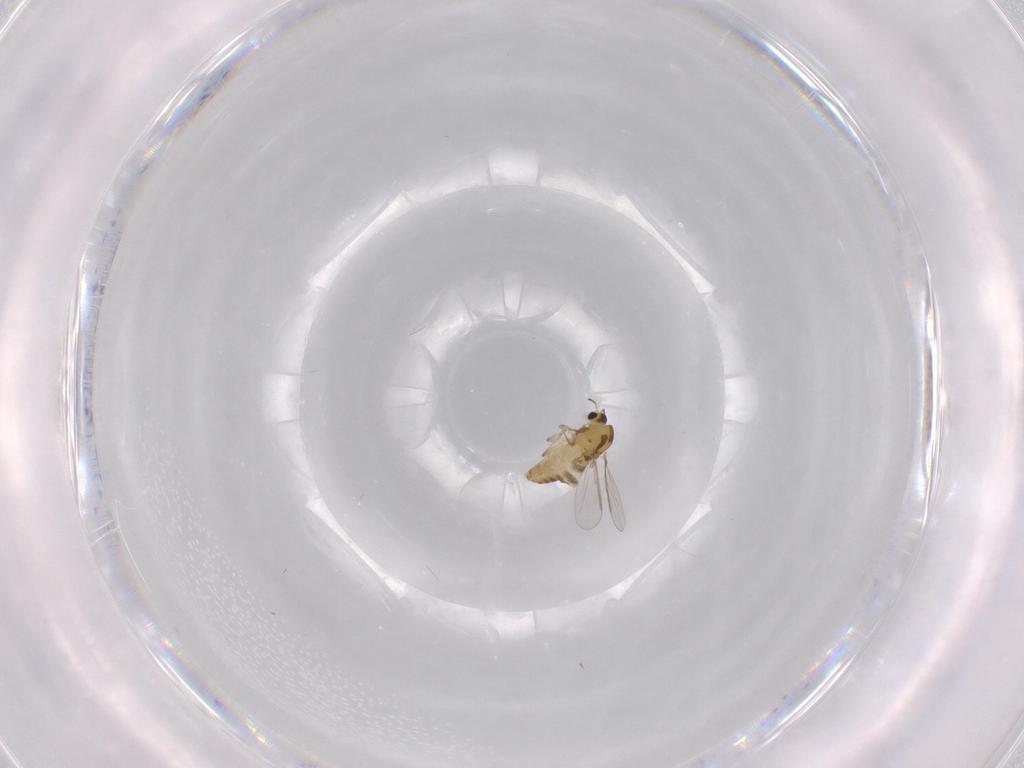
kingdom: Animalia
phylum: Arthropoda
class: Insecta
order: Diptera
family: Chironomidae
